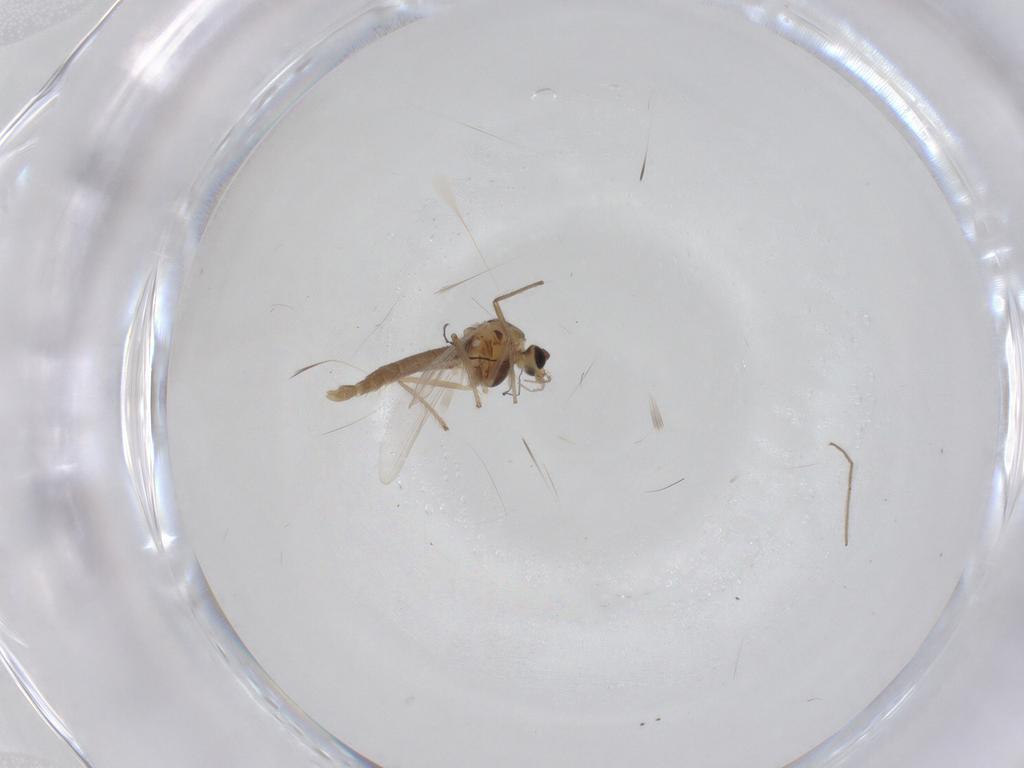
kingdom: Animalia
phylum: Arthropoda
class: Insecta
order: Diptera
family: Chironomidae
